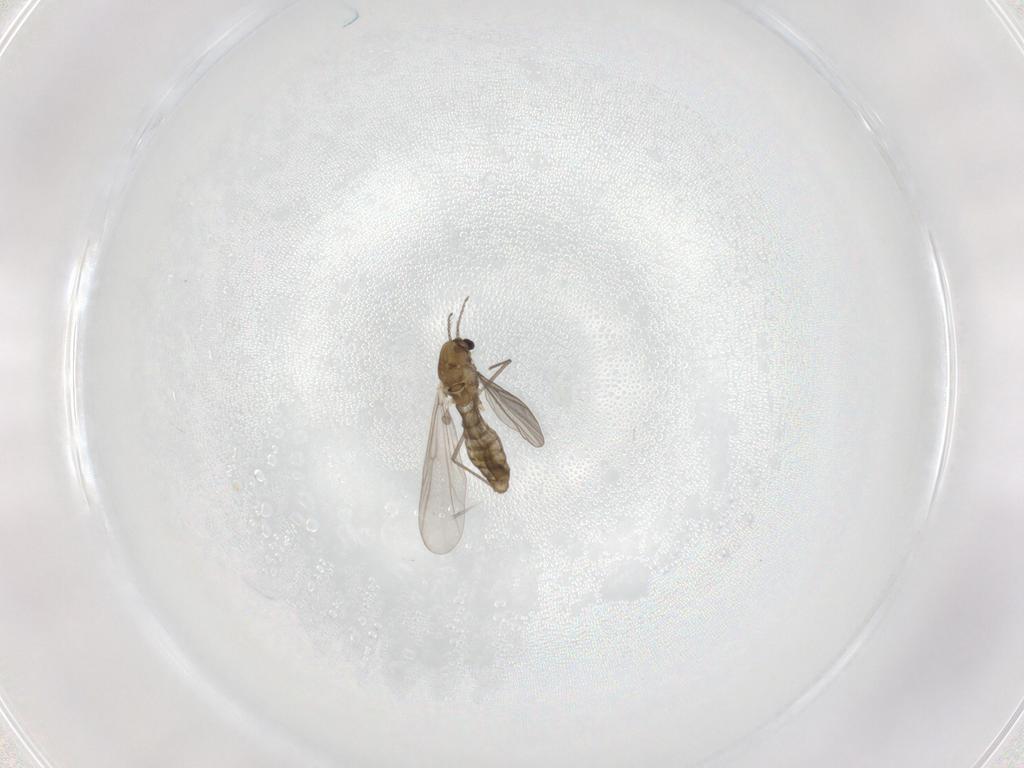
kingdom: Animalia
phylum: Arthropoda
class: Insecta
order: Diptera
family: Chironomidae
